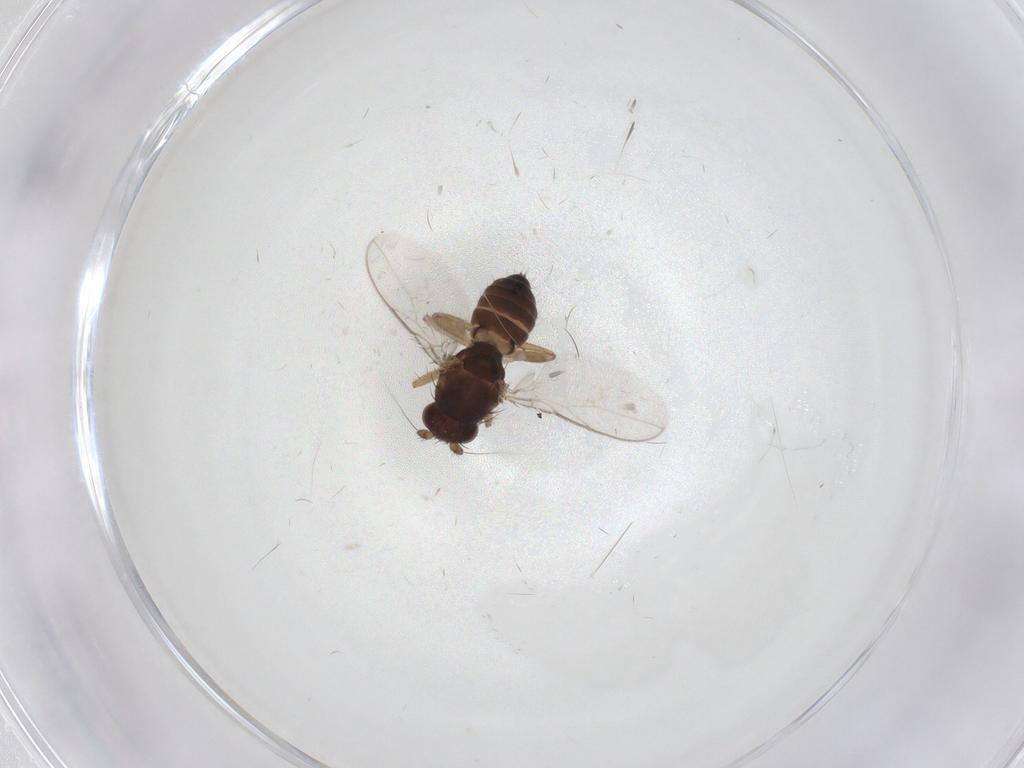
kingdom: Animalia
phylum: Arthropoda
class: Insecta
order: Diptera
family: Sphaeroceridae
